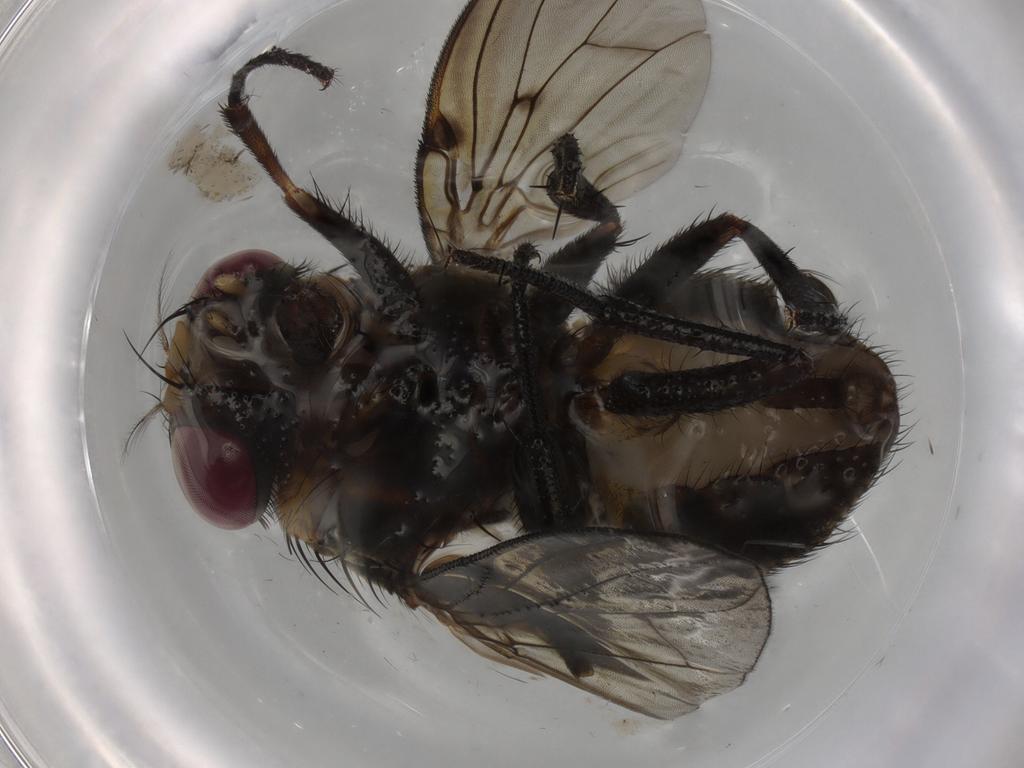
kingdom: Animalia
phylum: Arthropoda
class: Insecta
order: Diptera
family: Muscidae
